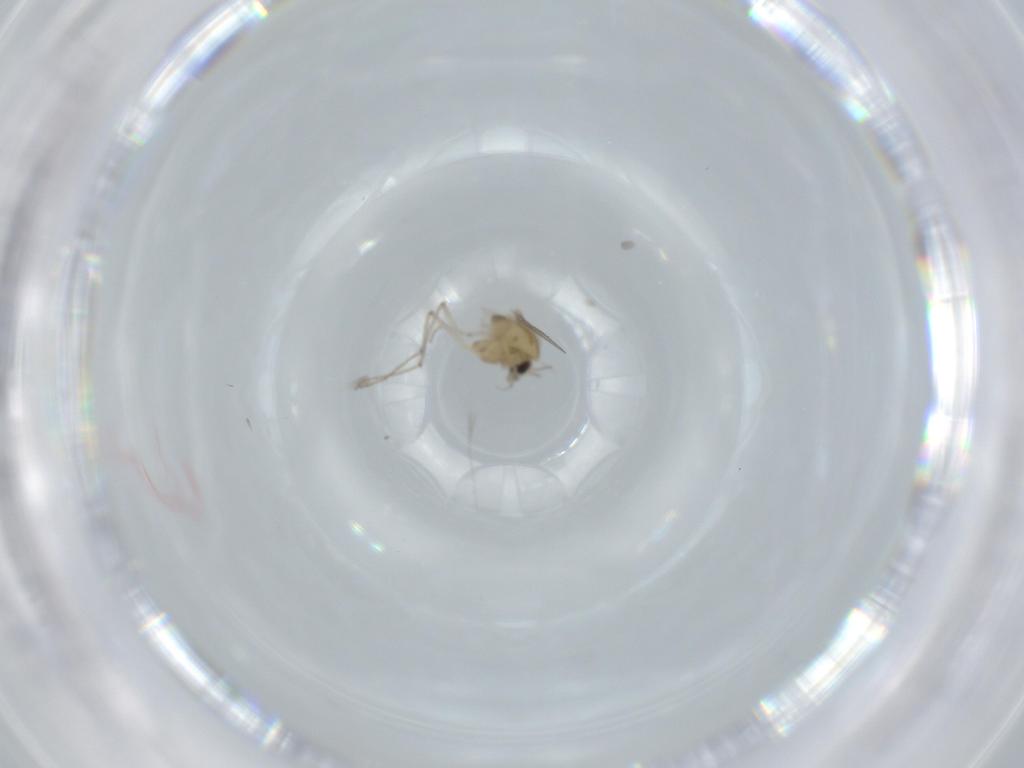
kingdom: Animalia
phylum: Arthropoda
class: Insecta
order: Diptera
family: Chironomidae
